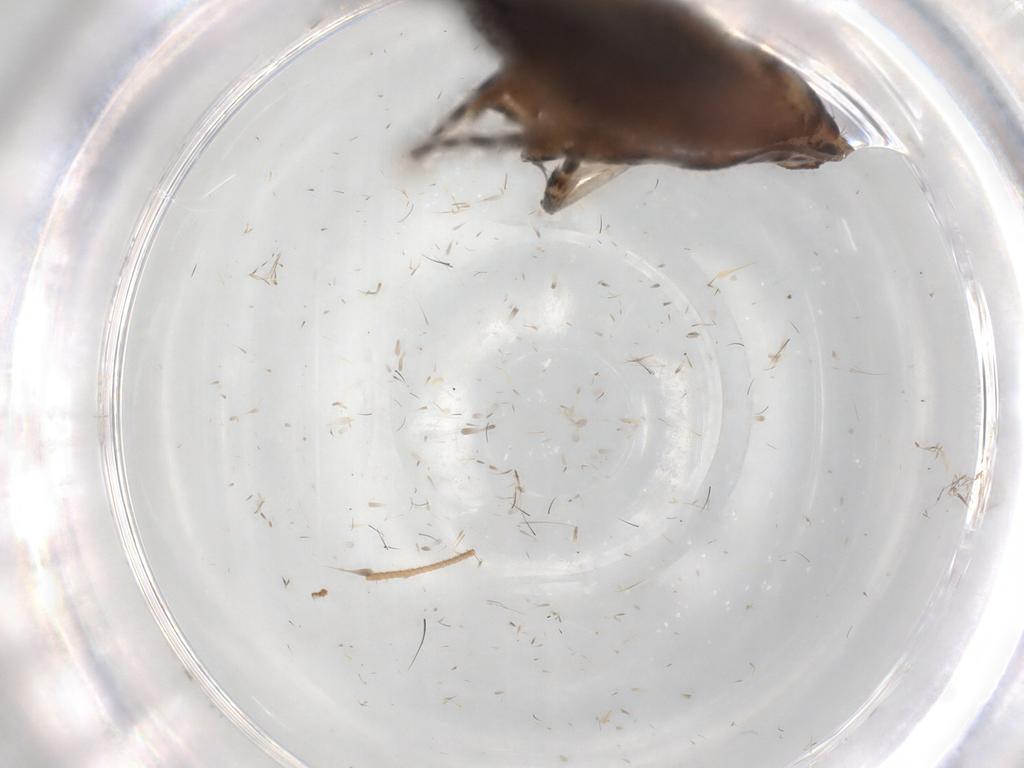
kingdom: Animalia
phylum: Arthropoda
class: Insecta
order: Lepidoptera
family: Immidae
